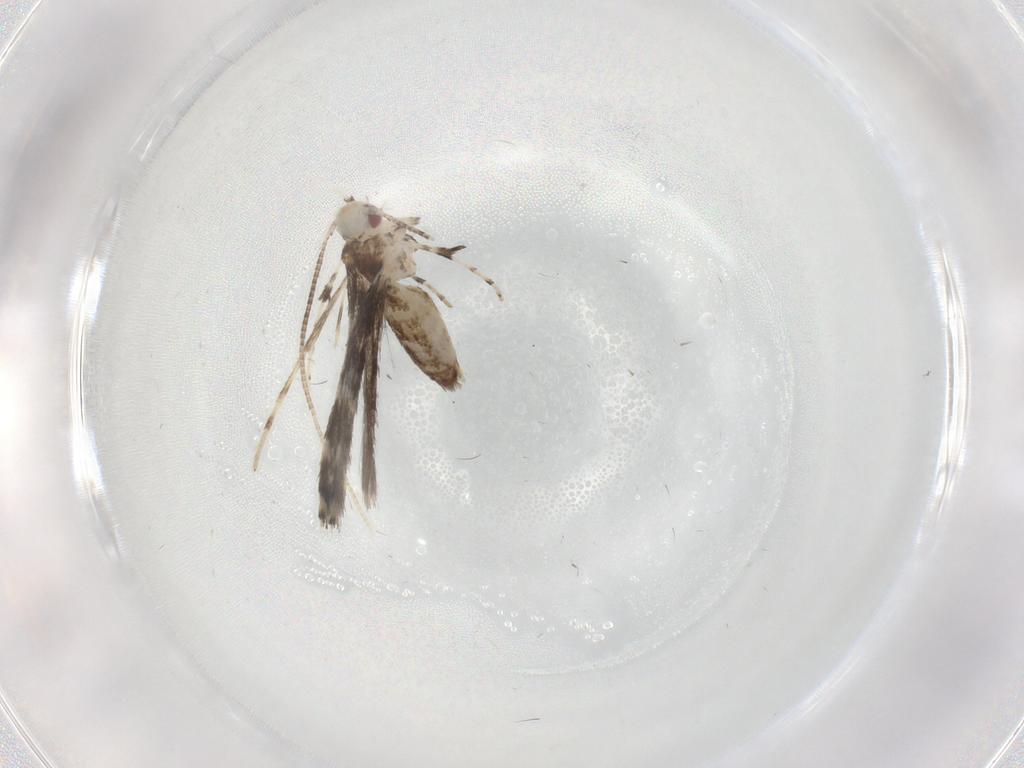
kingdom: Animalia
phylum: Arthropoda
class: Insecta
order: Lepidoptera
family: Gracillariidae
